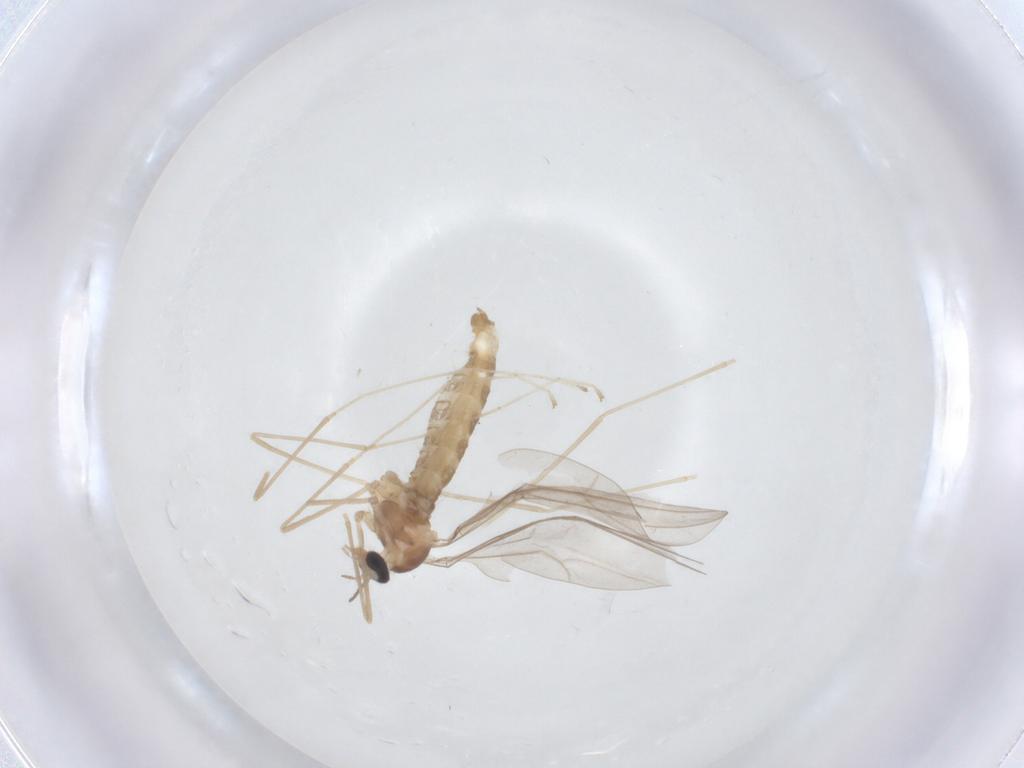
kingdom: Animalia
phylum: Arthropoda
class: Insecta
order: Diptera
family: Cecidomyiidae
